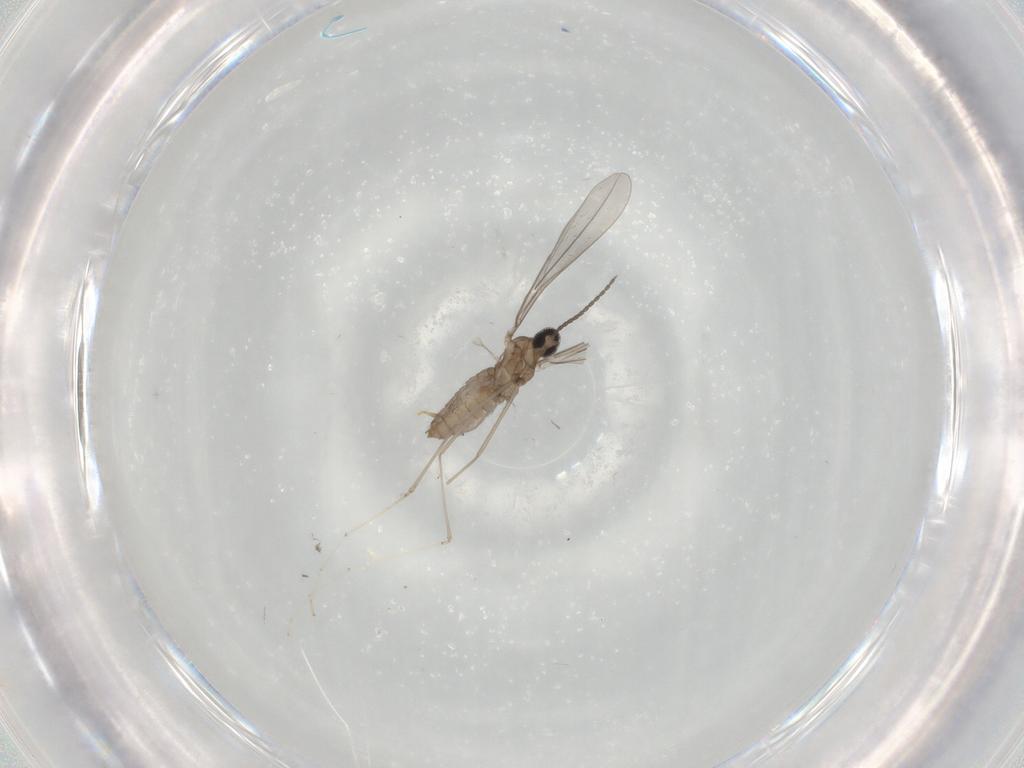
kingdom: Animalia
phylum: Arthropoda
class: Insecta
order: Diptera
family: Cecidomyiidae
